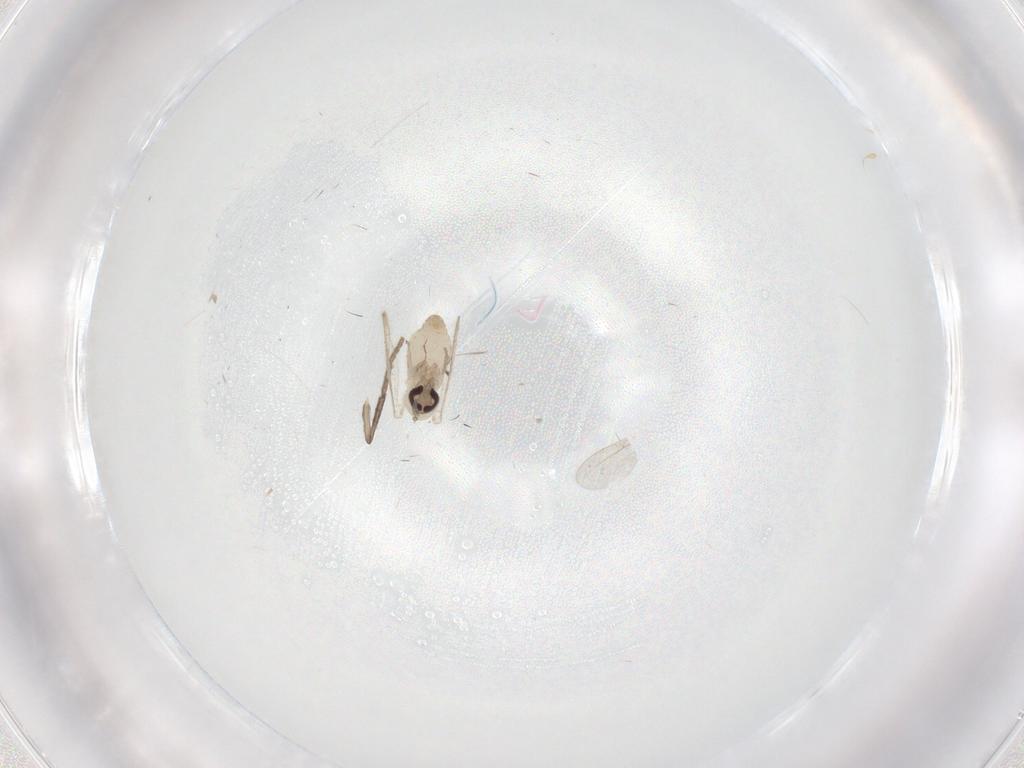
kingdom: Animalia
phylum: Arthropoda
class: Insecta
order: Diptera
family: Psychodidae
